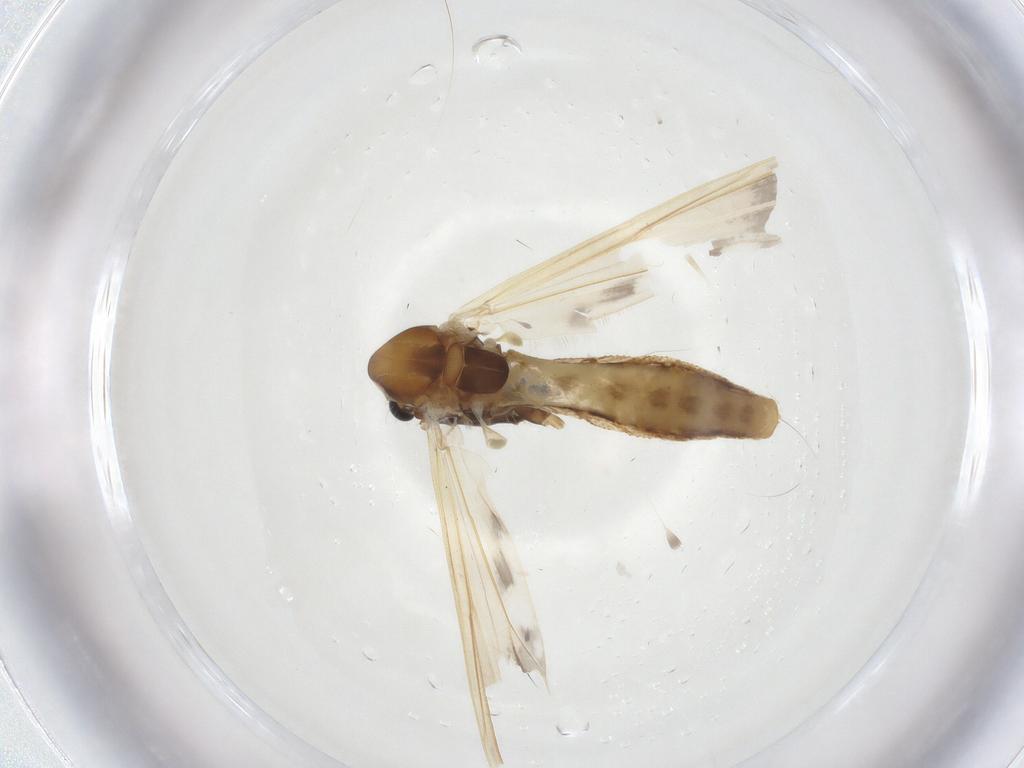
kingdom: Animalia
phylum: Arthropoda
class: Insecta
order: Diptera
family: Chironomidae
